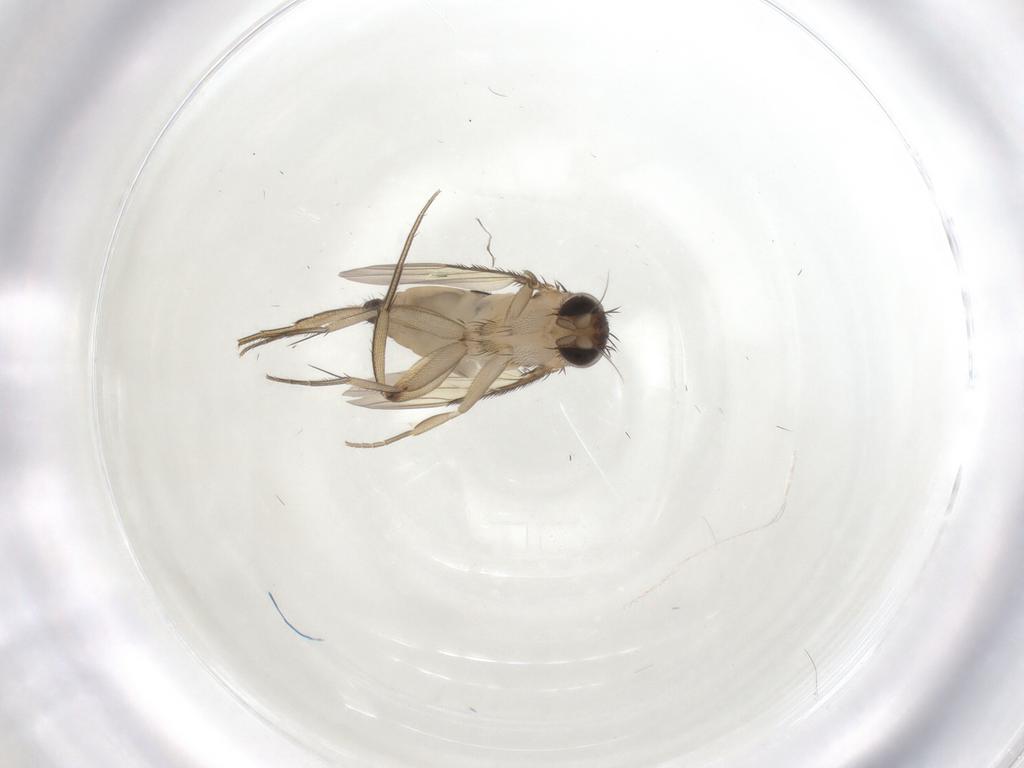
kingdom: Animalia
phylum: Arthropoda
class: Insecta
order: Diptera
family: Phoridae
